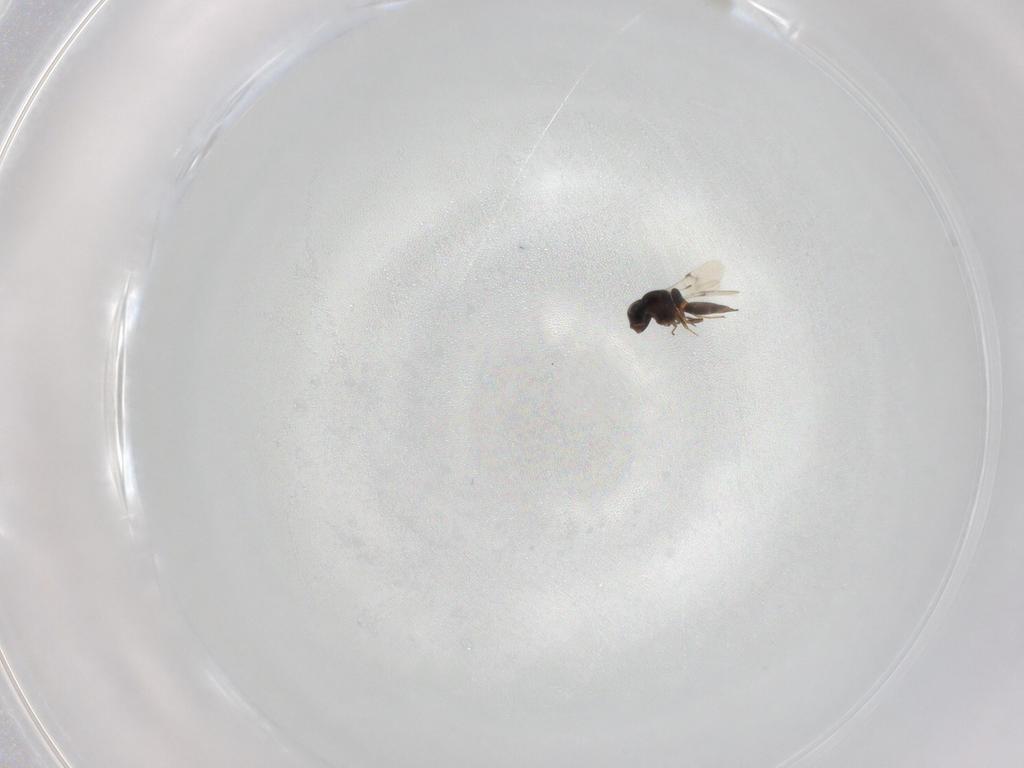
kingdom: Animalia
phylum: Arthropoda
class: Insecta
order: Hymenoptera
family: Scelionidae
